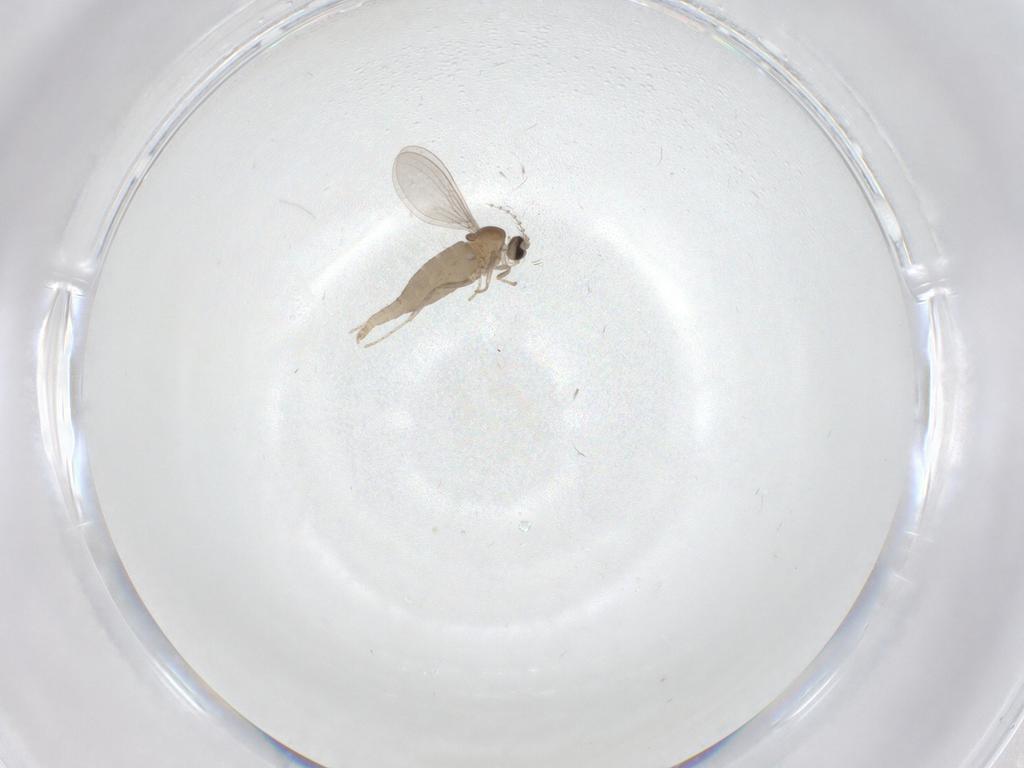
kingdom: Animalia
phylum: Arthropoda
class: Insecta
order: Diptera
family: Cecidomyiidae
